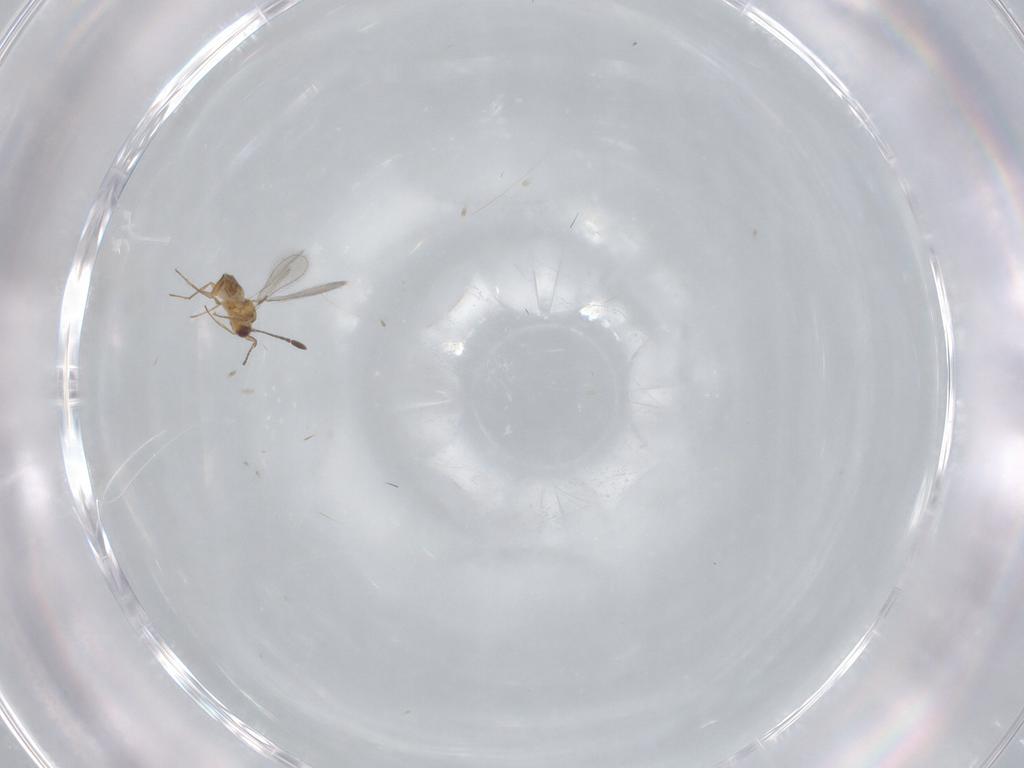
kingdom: Animalia
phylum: Arthropoda
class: Insecta
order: Hymenoptera
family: Mymaridae
